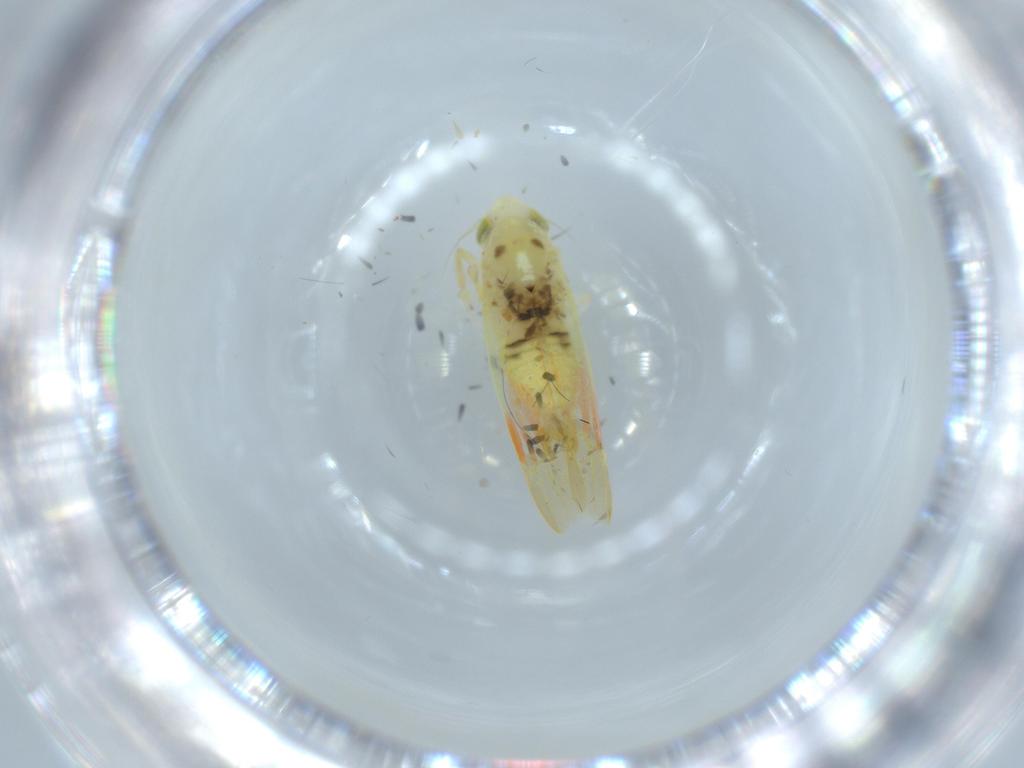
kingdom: Animalia
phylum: Arthropoda
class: Insecta
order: Hemiptera
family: Cicadellidae
